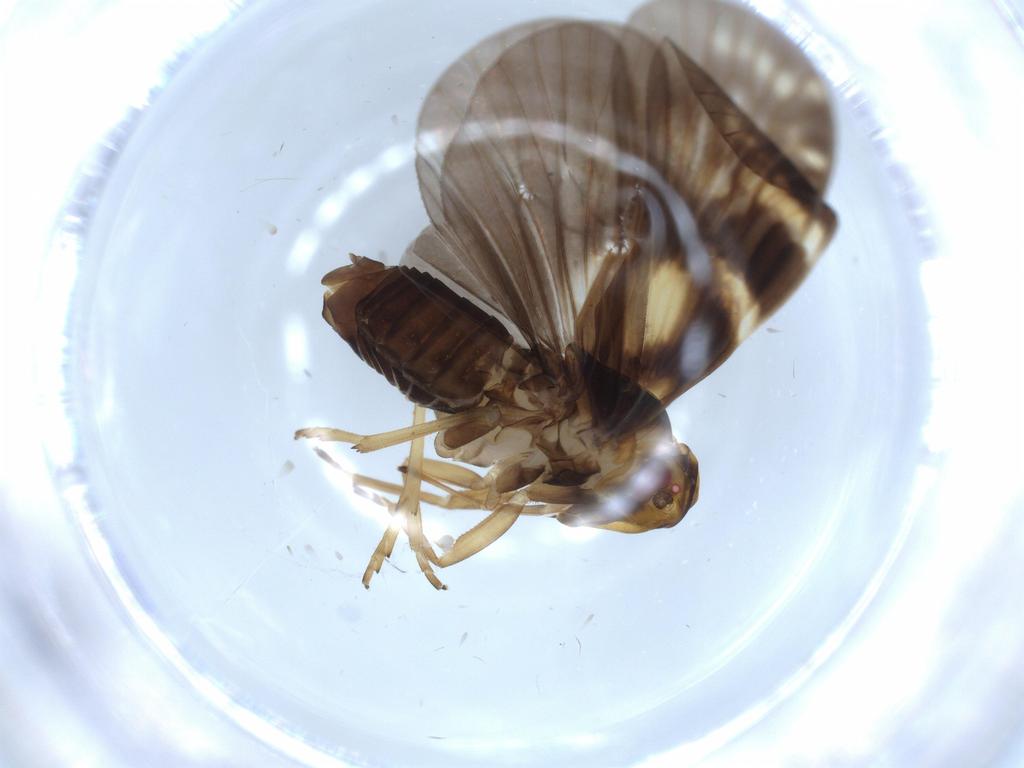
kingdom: Animalia
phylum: Arthropoda
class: Insecta
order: Hemiptera
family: Cixiidae
